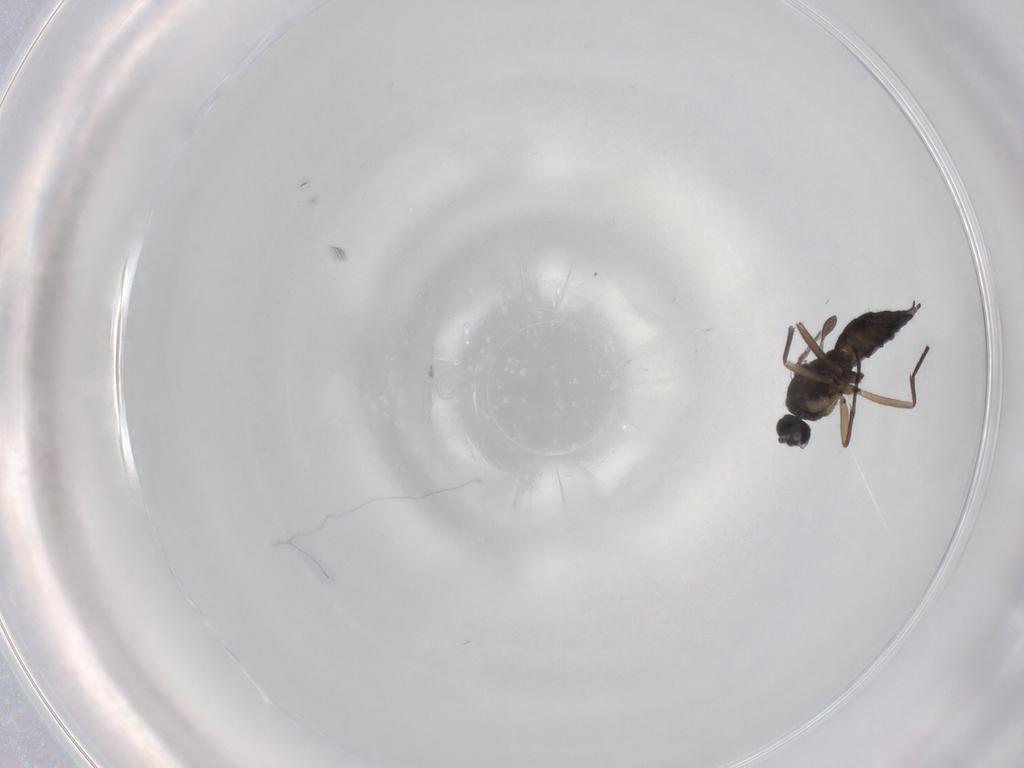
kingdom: Animalia
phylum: Arthropoda
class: Insecta
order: Diptera
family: Sciaridae
